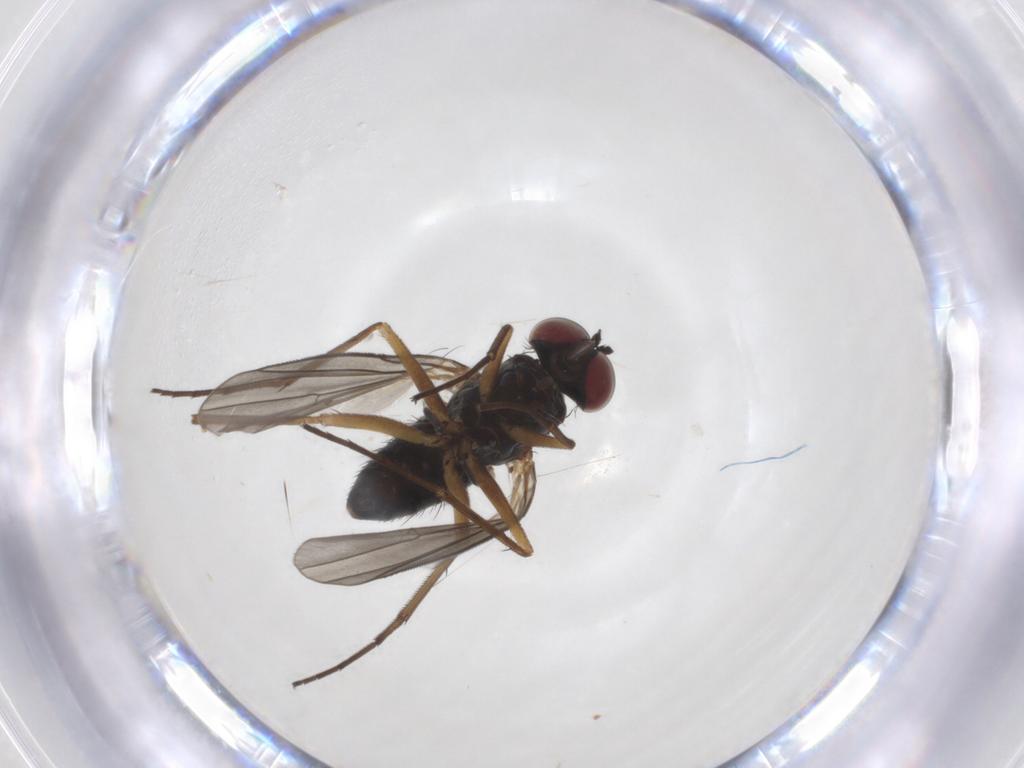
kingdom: Animalia
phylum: Arthropoda
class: Insecta
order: Diptera
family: Dolichopodidae
